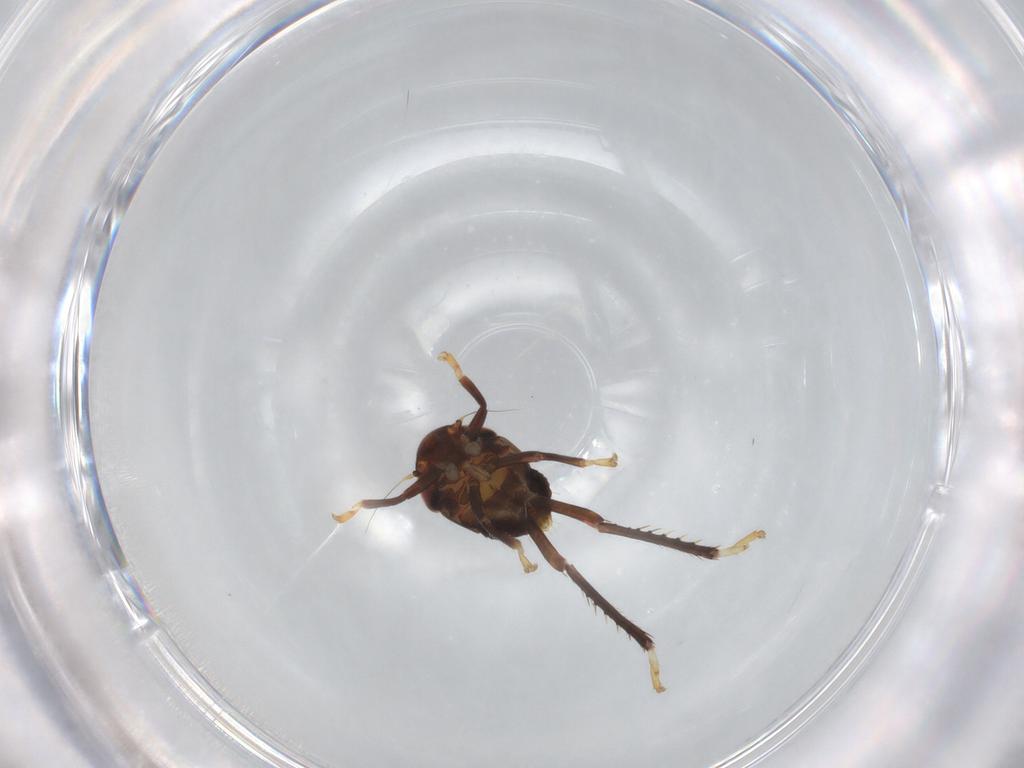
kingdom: Animalia
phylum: Arthropoda
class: Insecta
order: Hemiptera
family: Cicadellidae
